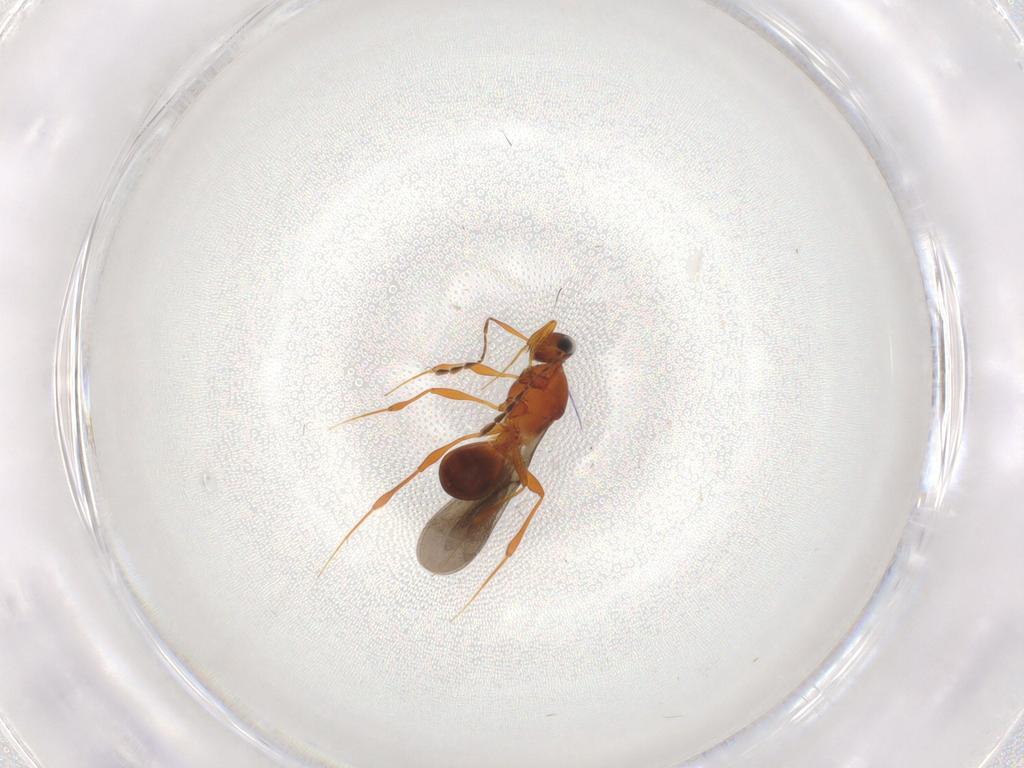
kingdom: Animalia
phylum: Arthropoda
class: Insecta
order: Hymenoptera
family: Platygastridae
